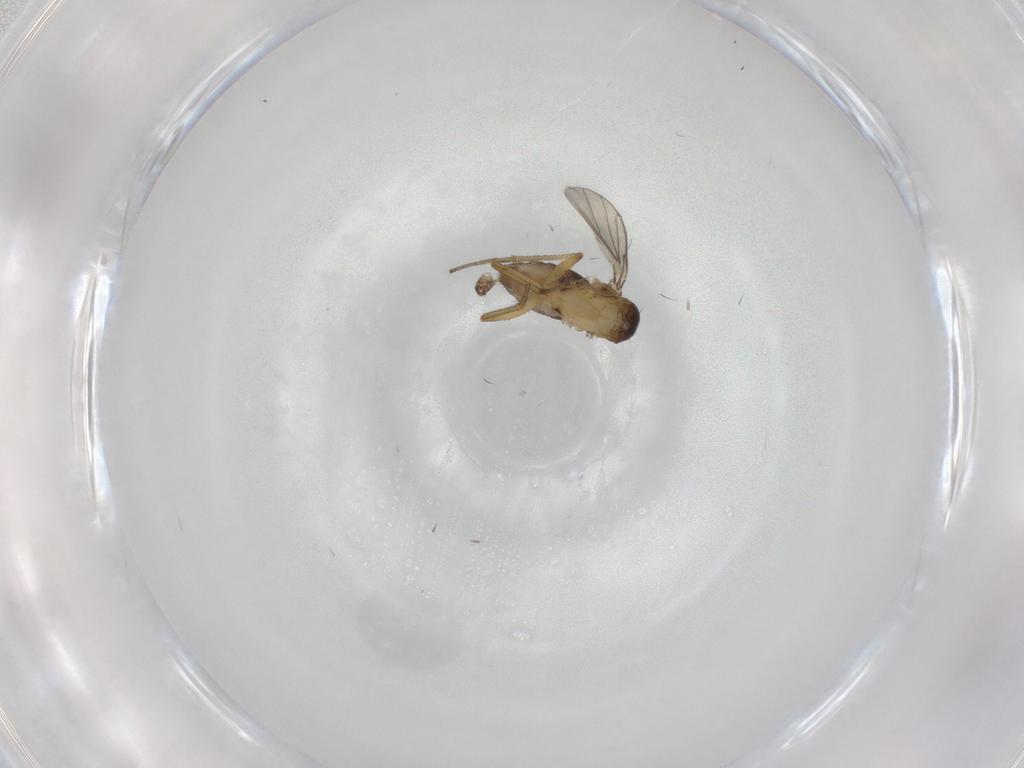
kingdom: Animalia
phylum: Arthropoda
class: Insecta
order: Diptera
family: Dolichopodidae
